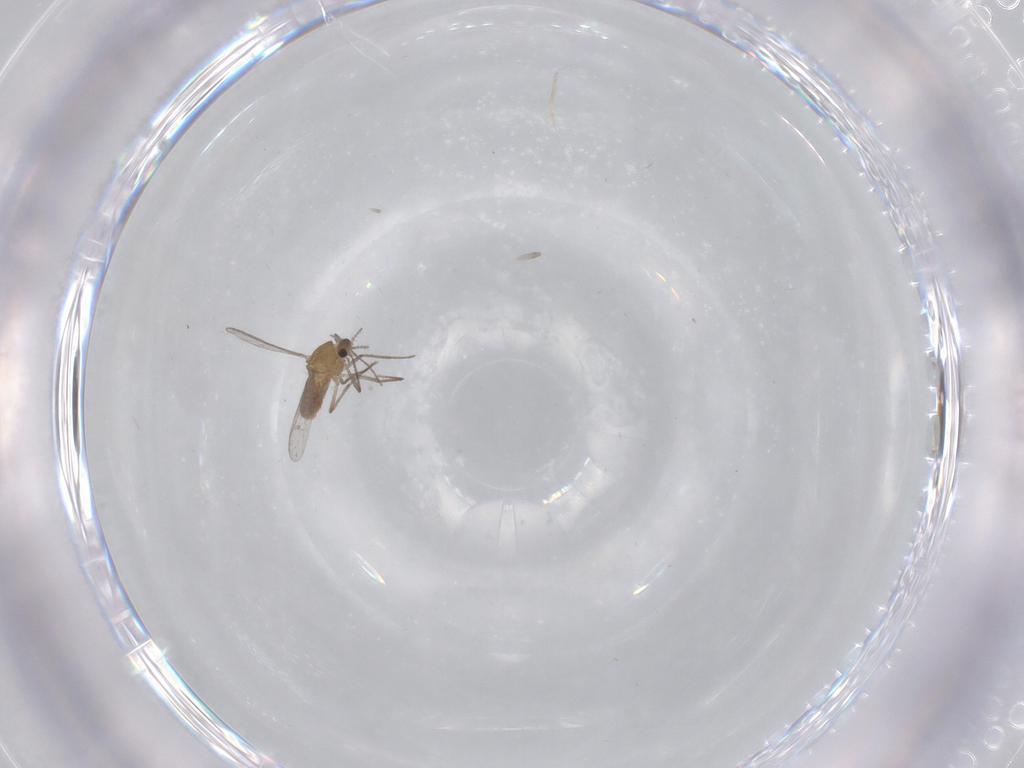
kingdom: Animalia
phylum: Arthropoda
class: Insecta
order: Diptera
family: Chironomidae
